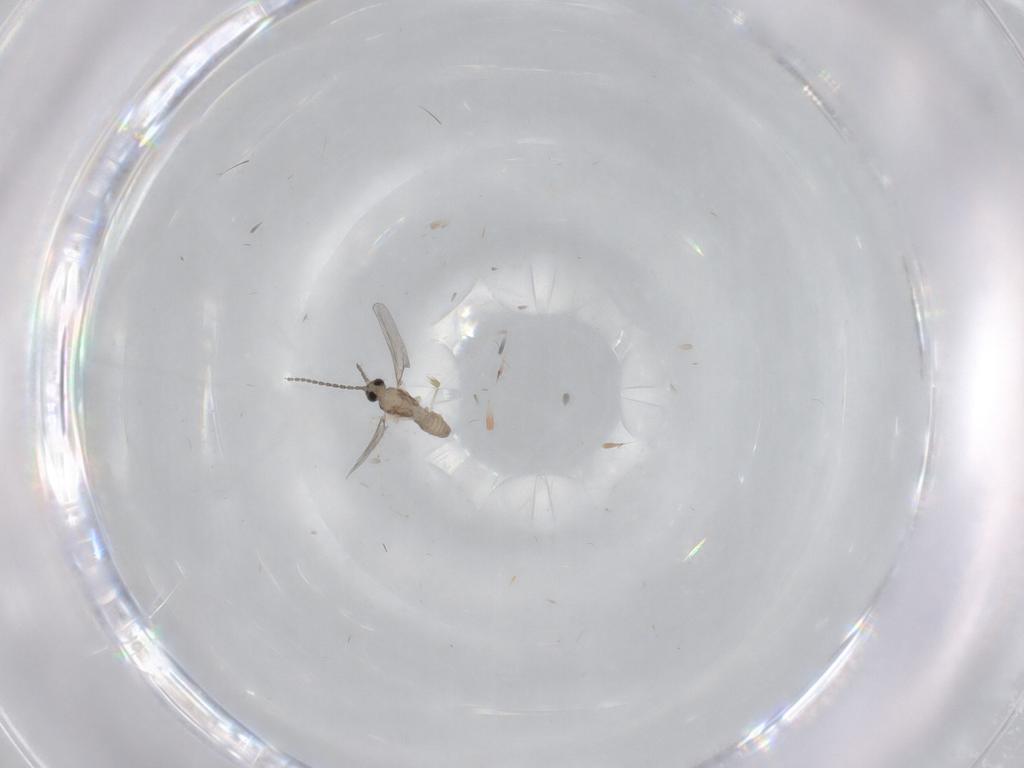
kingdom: Animalia
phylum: Arthropoda
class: Insecta
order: Diptera
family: Cecidomyiidae
